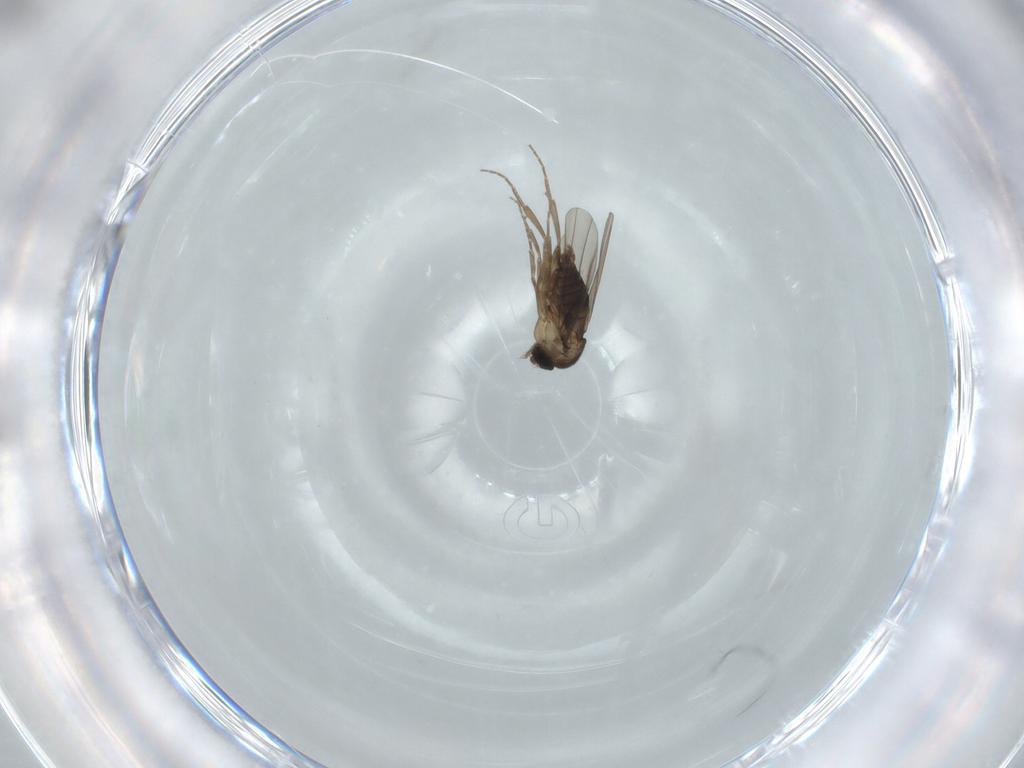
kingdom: Animalia
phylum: Arthropoda
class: Insecta
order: Diptera
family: Phoridae
